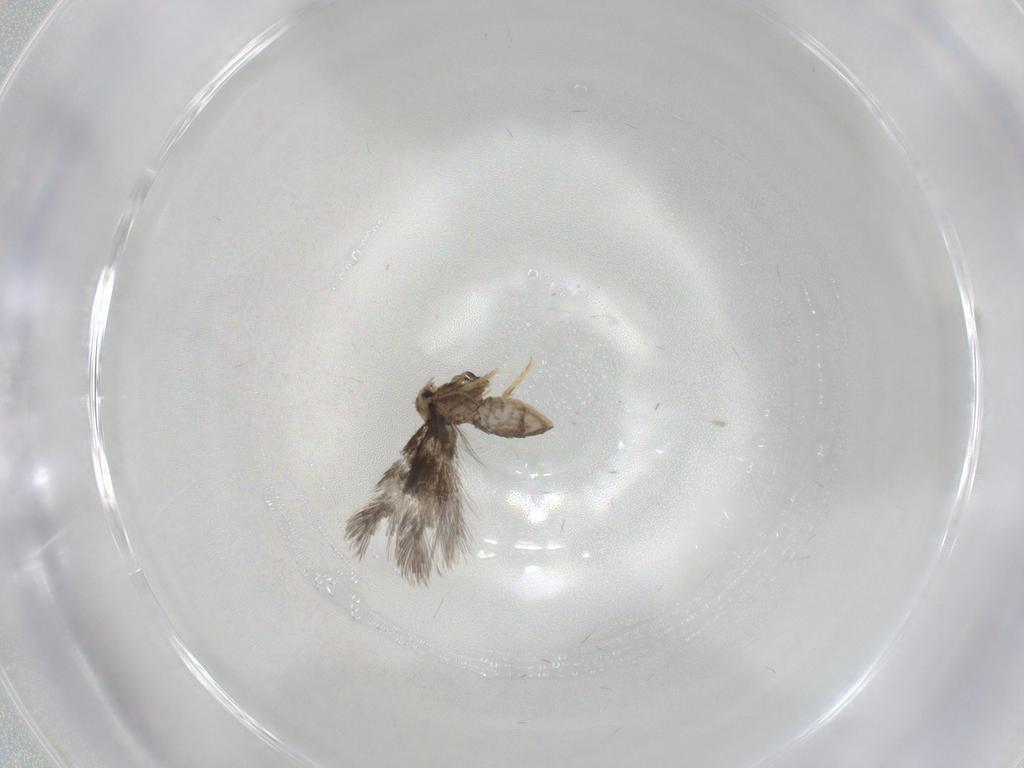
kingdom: Animalia
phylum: Arthropoda
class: Insecta
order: Lepidoptera
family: Nepticulidae
